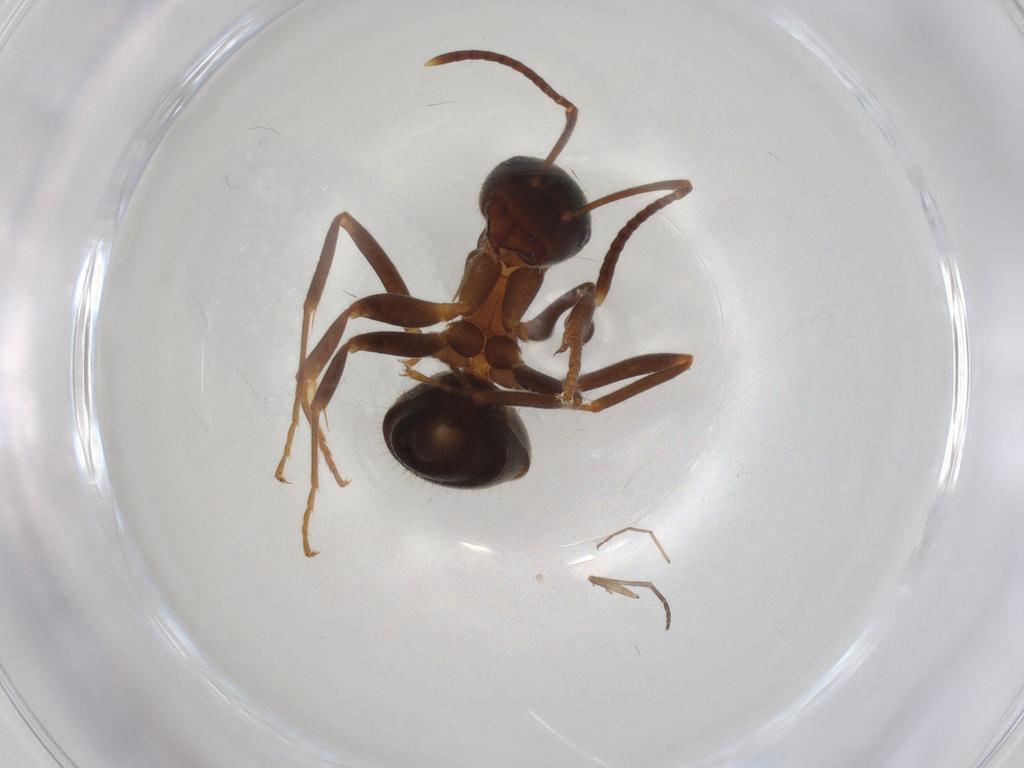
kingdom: Animalia
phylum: Arthropoda
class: Insecta
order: Hymenoptera
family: Formicidae
